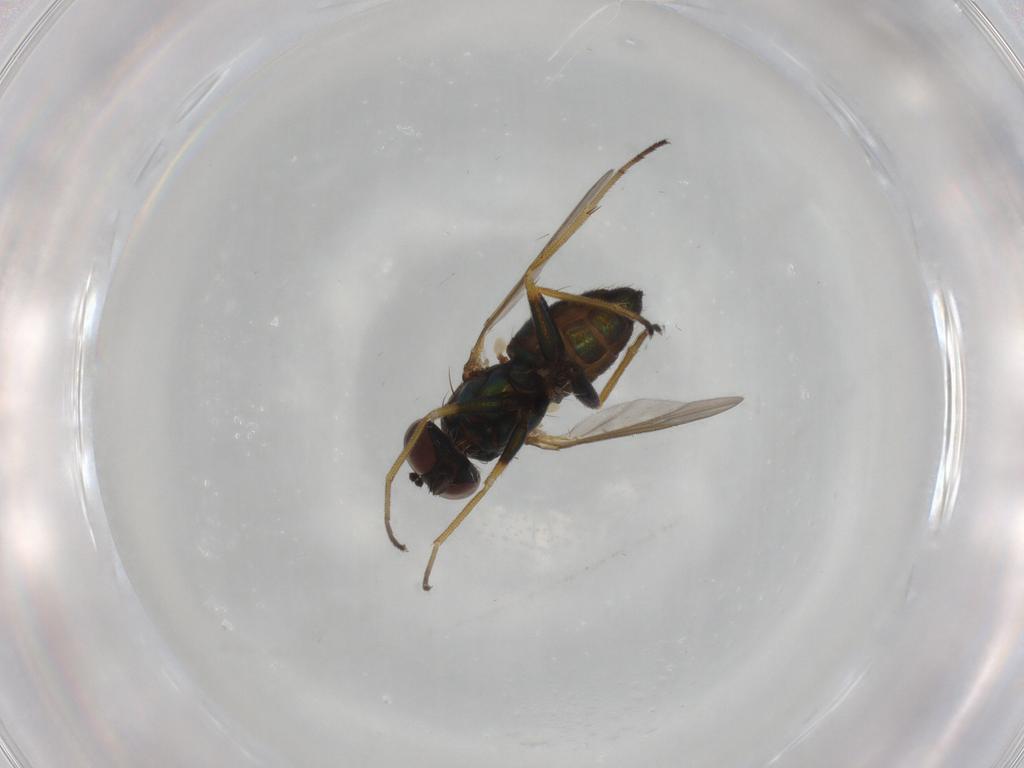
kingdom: Animalia
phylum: Arthropoda
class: Insecta
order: Diptera
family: Dolichopodidae
